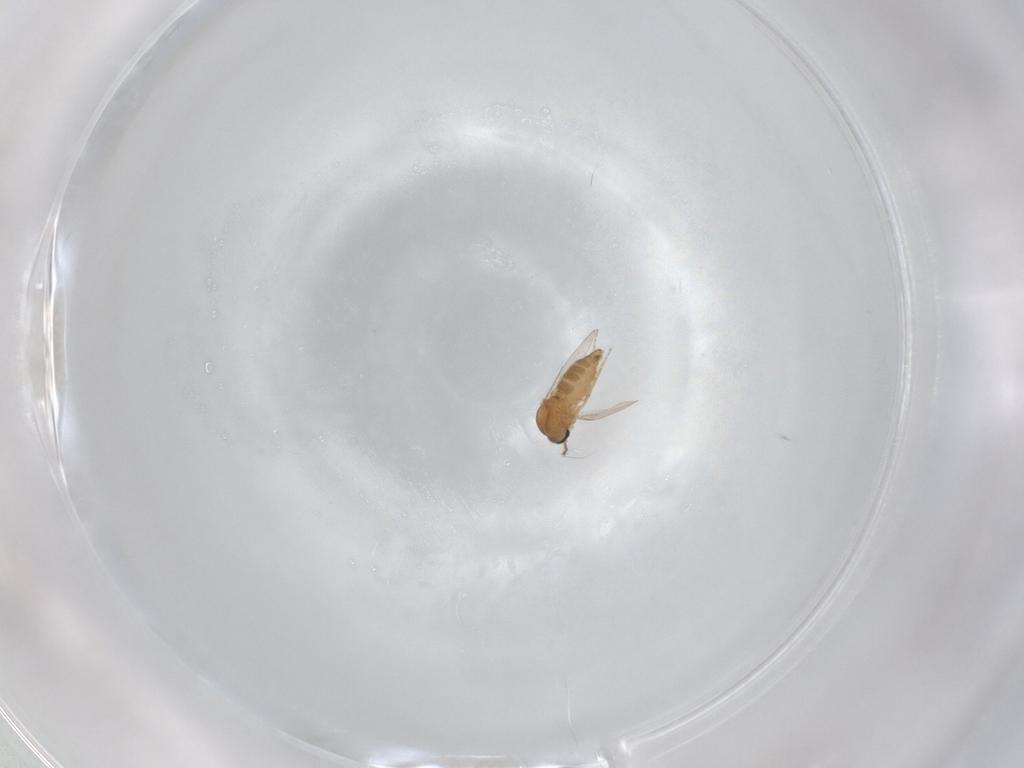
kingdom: Animalia
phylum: Arthropoda
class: Insecta
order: Diptera
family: Ceratopogonidae
